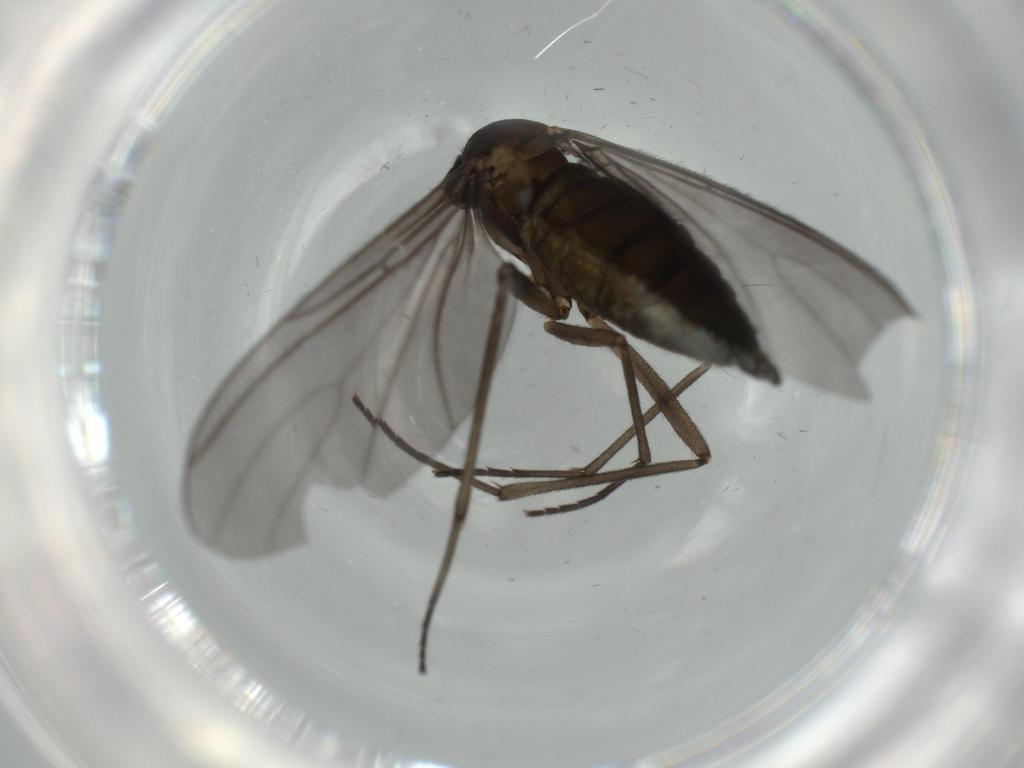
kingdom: Animalia
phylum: Arthropoda
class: Insecta
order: Diptera
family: Sciaridae
